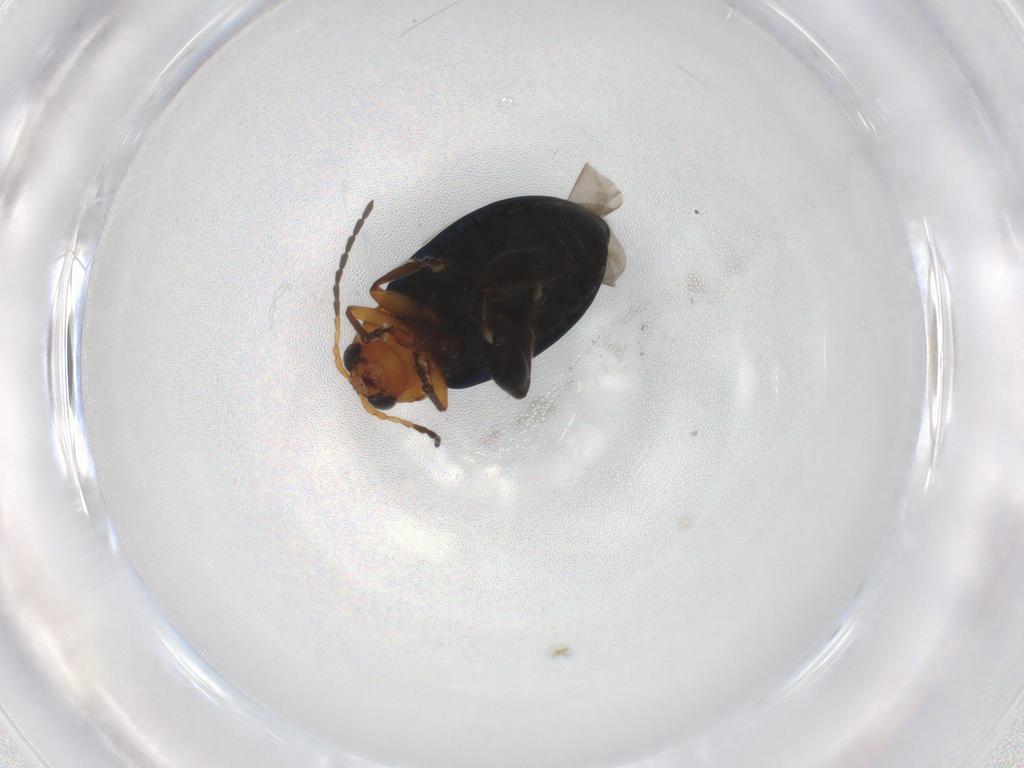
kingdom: Animalia
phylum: Arthropoda
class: Insecta
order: Coleoptera
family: Chrysomelidae
